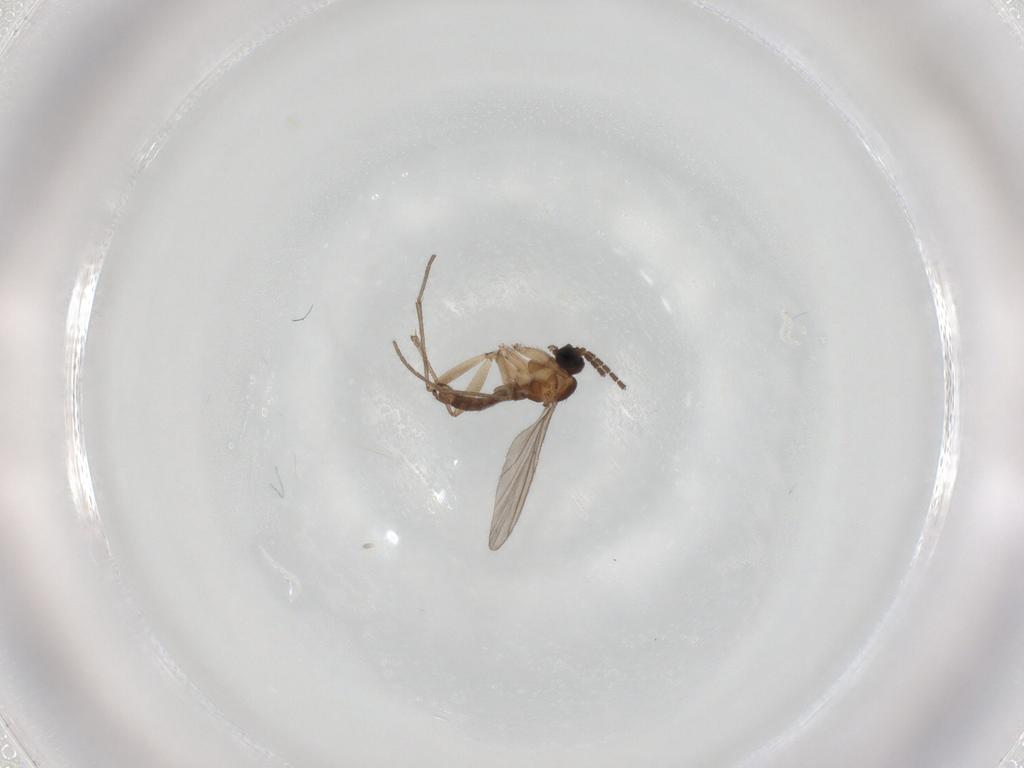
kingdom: Animalia
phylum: Arthropoda
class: Insecta
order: Diptera
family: Sciaridae
